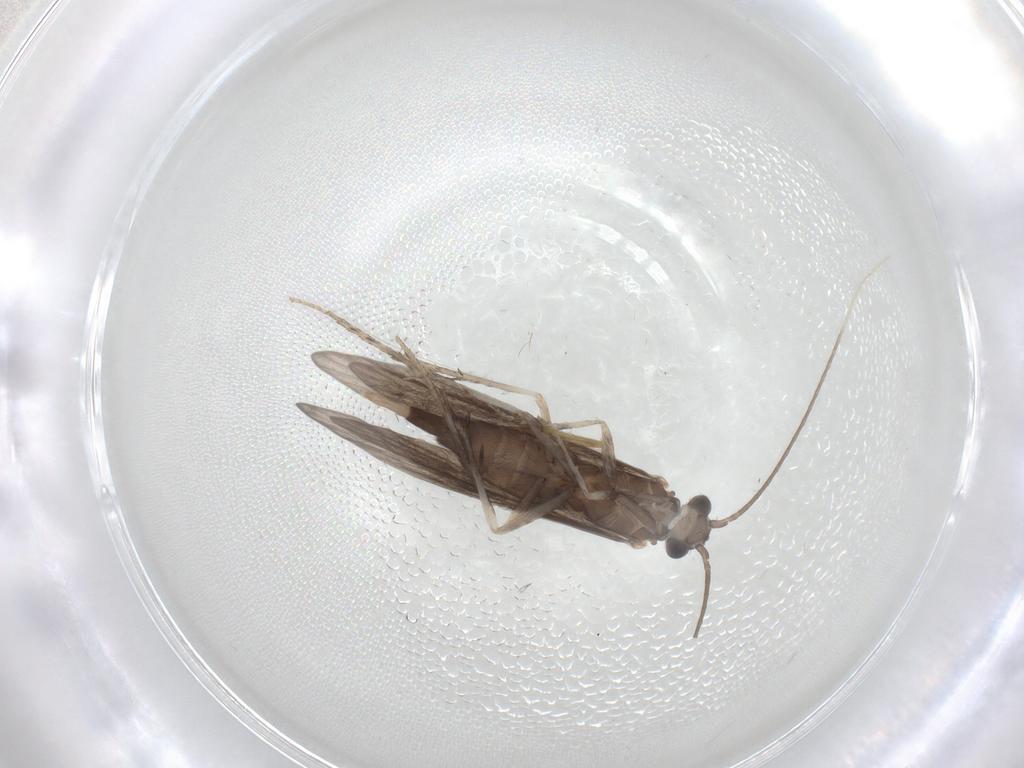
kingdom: Animalia
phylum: Arthropoda
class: Insecta
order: Trichoptera
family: Xiphocentronidae
